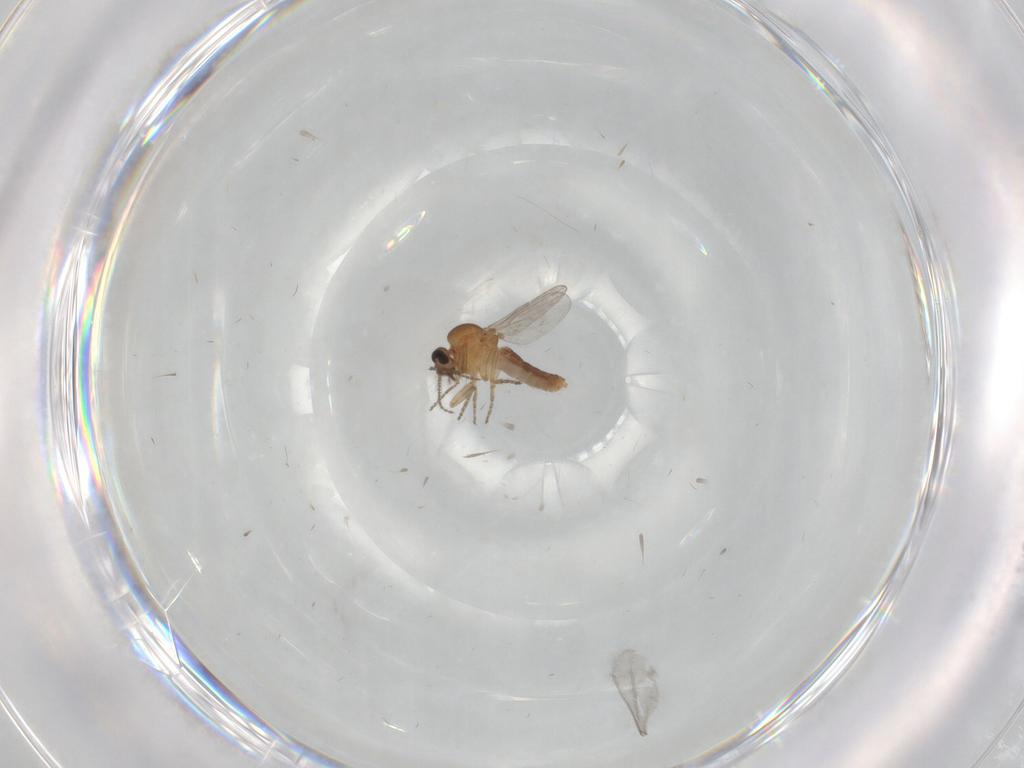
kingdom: Animalia
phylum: Arthropoda
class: Insecta
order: Diptera
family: Ceratopogonidae
